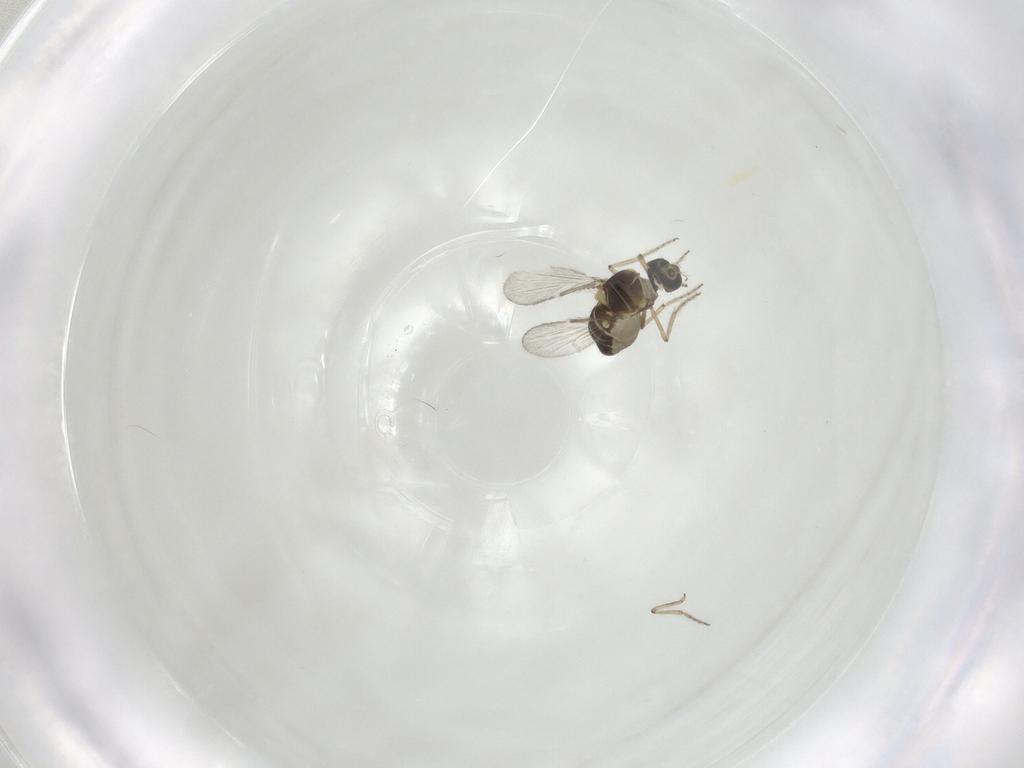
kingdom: Animalia
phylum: Arthropoda
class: Insecta
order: Diptera
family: Ceratopogonidae
